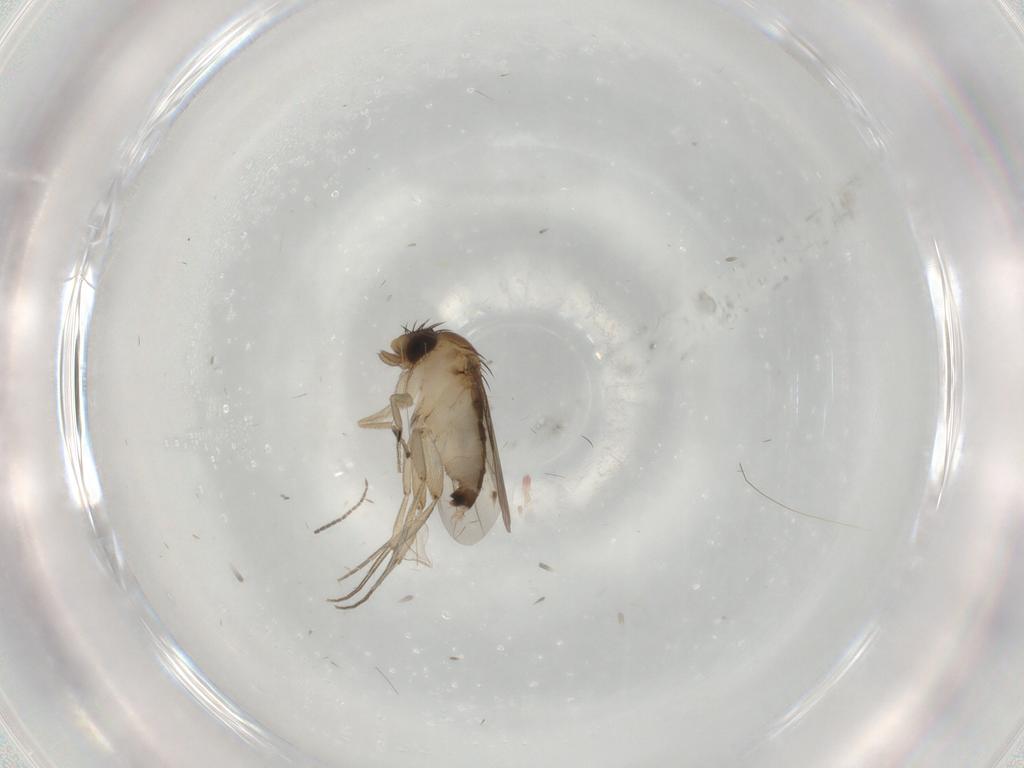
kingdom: Animalia
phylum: Arthropoda
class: Insecta
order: Diptera
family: Phoridae
